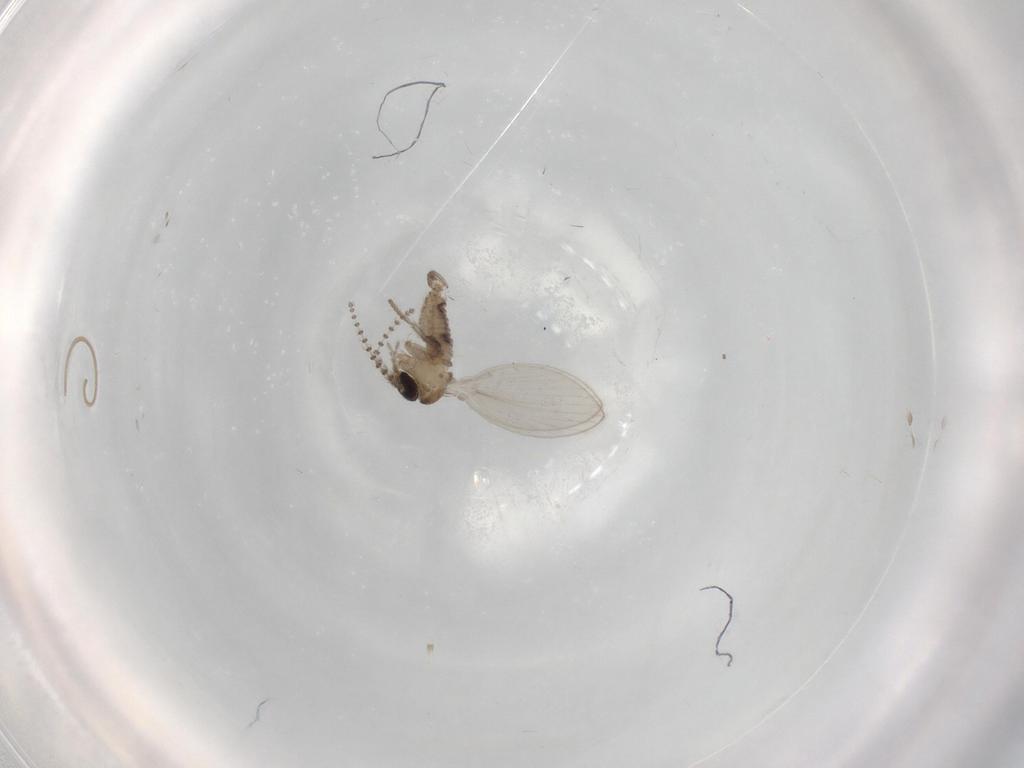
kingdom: Animalia
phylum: Arthropoda
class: Insecta
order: Diptera
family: Psychodidae
